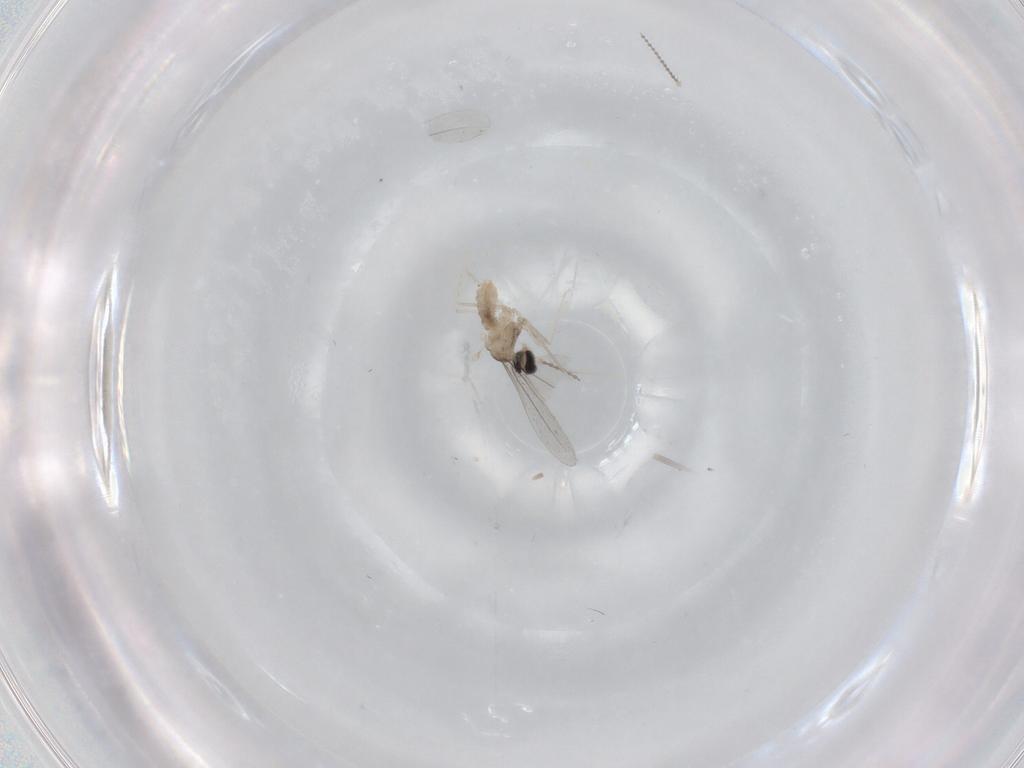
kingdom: Animalia
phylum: Arthropoda
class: Insecta
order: Diptera
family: Cecidomyiidae
